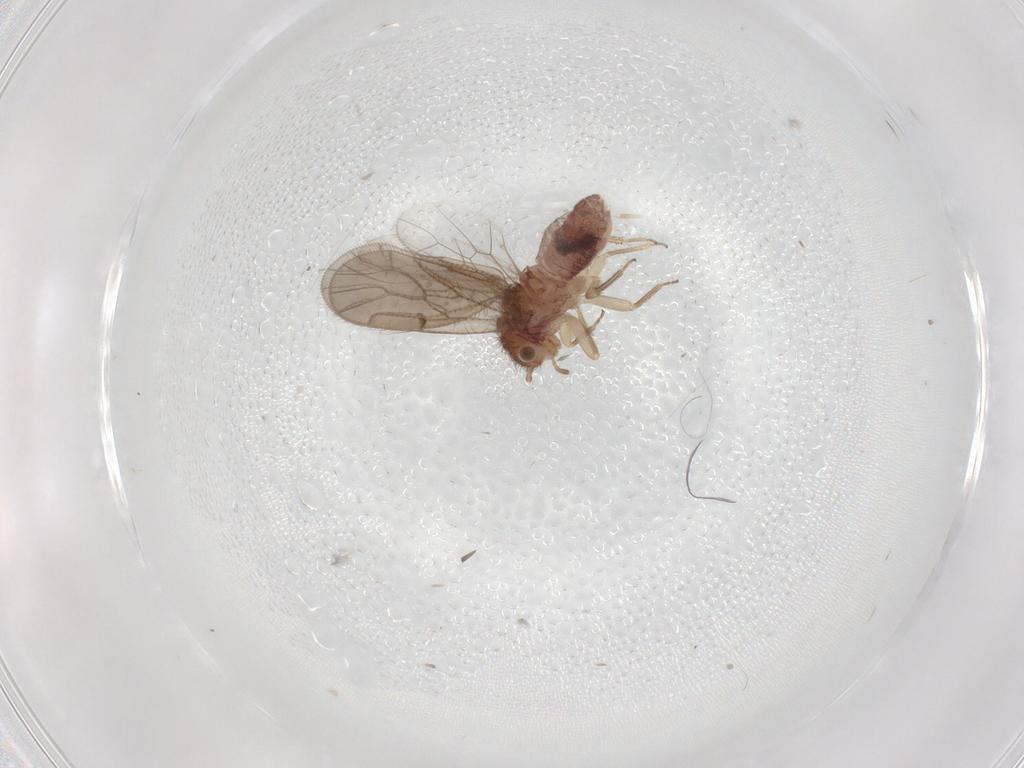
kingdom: Animalia
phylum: Arthropoda
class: Insecta
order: Psocodea
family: Ectopsocidae
